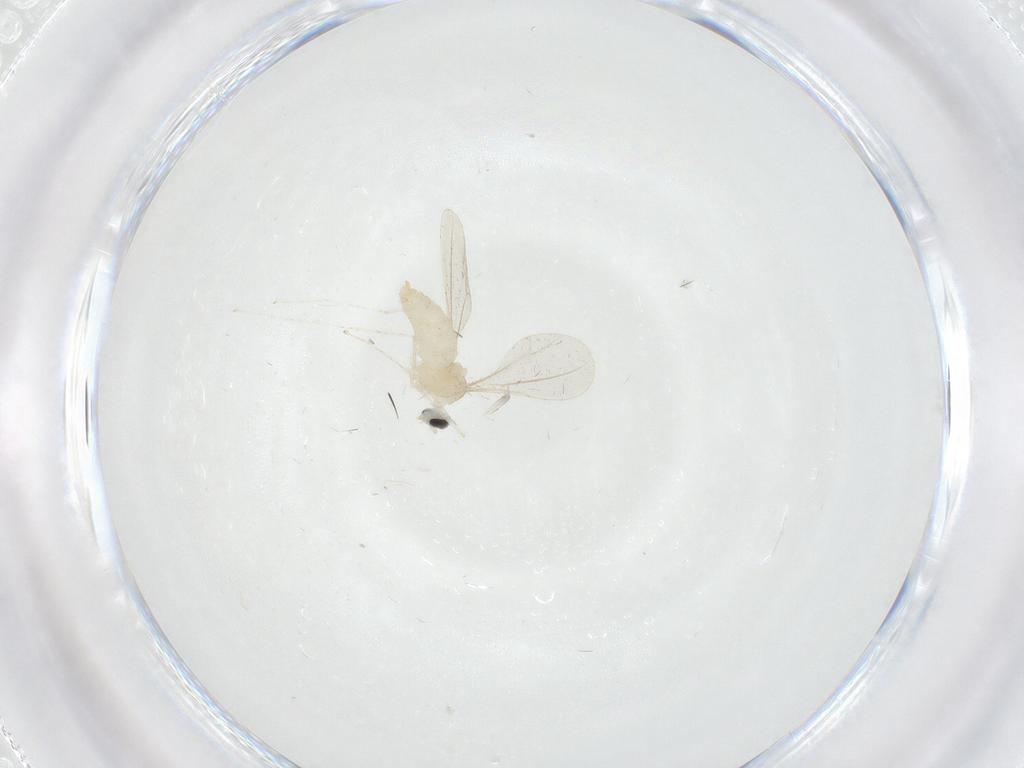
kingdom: Animalia
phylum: Arthropoda
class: Insecta
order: Diptera
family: Cecidomyiidae
